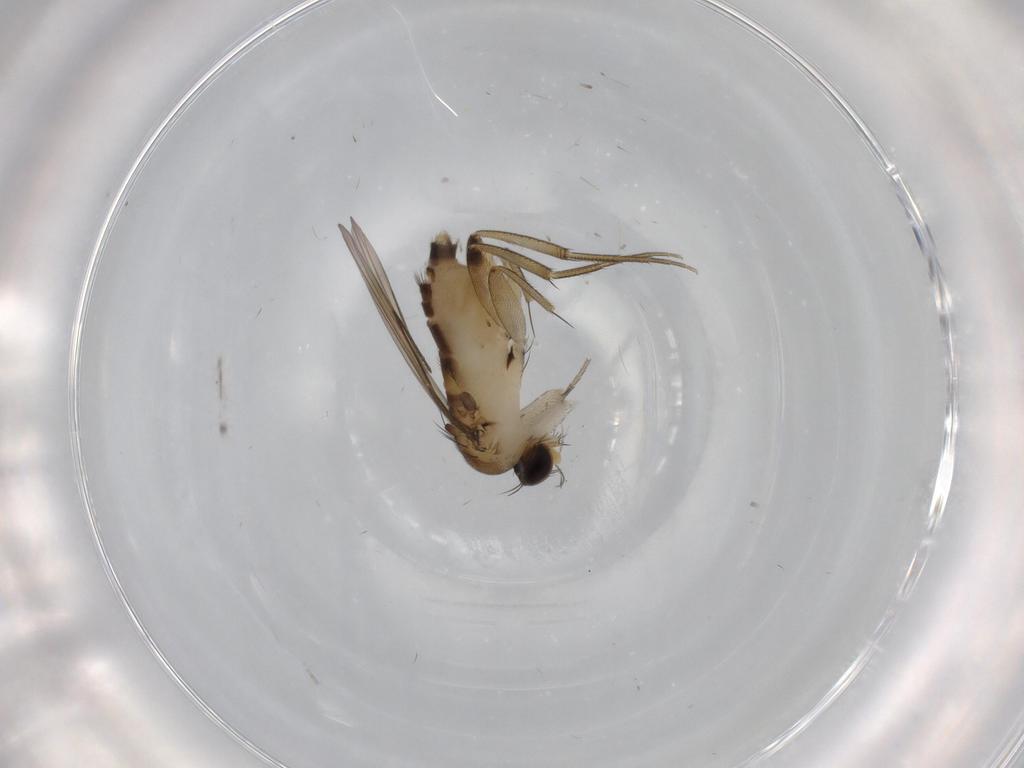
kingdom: Animalia
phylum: Arthropoda
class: Insecta
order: Diptera
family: Phoridae
